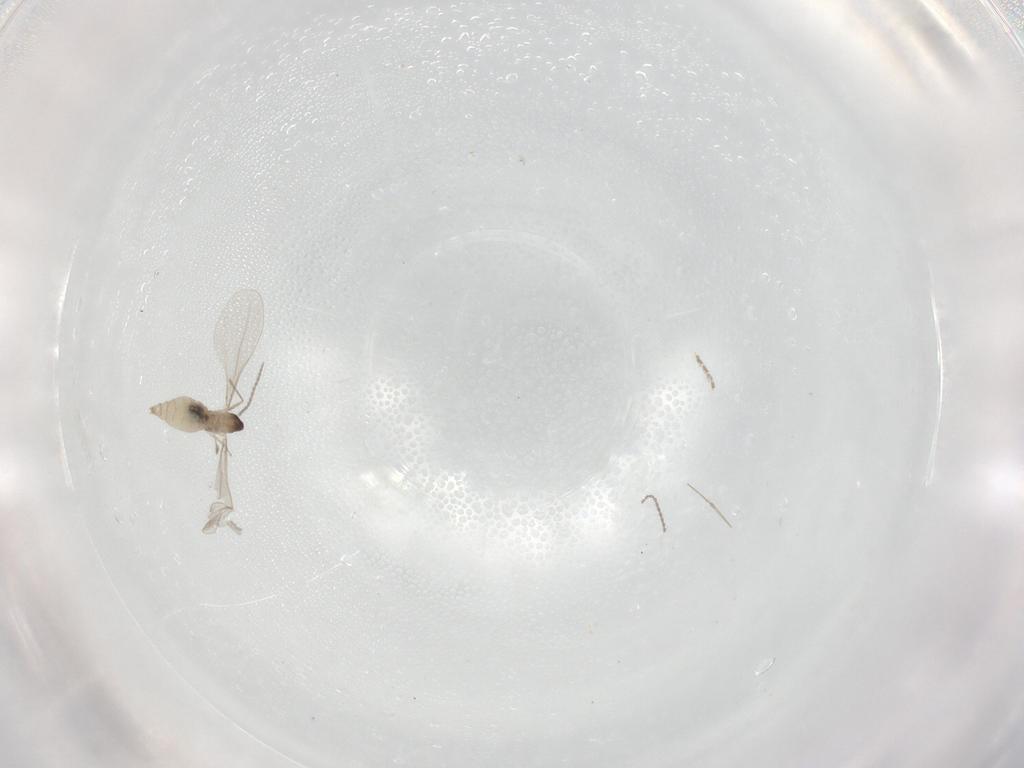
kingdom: Animalia
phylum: Arthropoda
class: Insecta
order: Diptera
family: Cecidomyiidae
